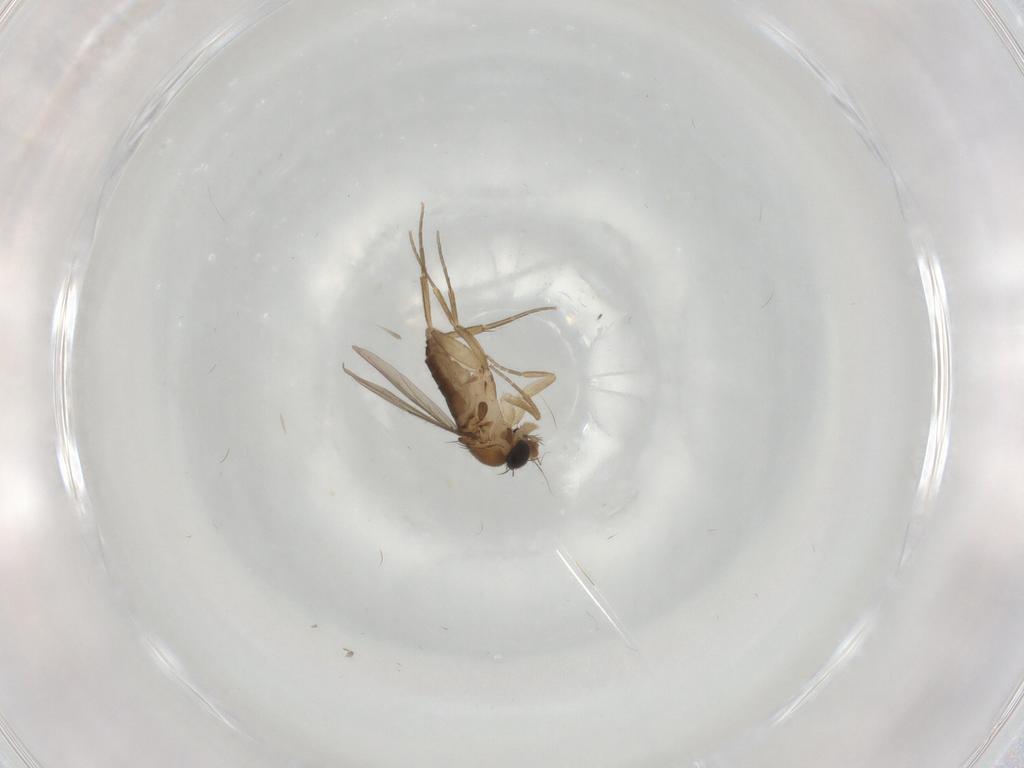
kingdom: Animalia
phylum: Arthropoda
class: Insecta
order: Diptera
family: Phoridae
